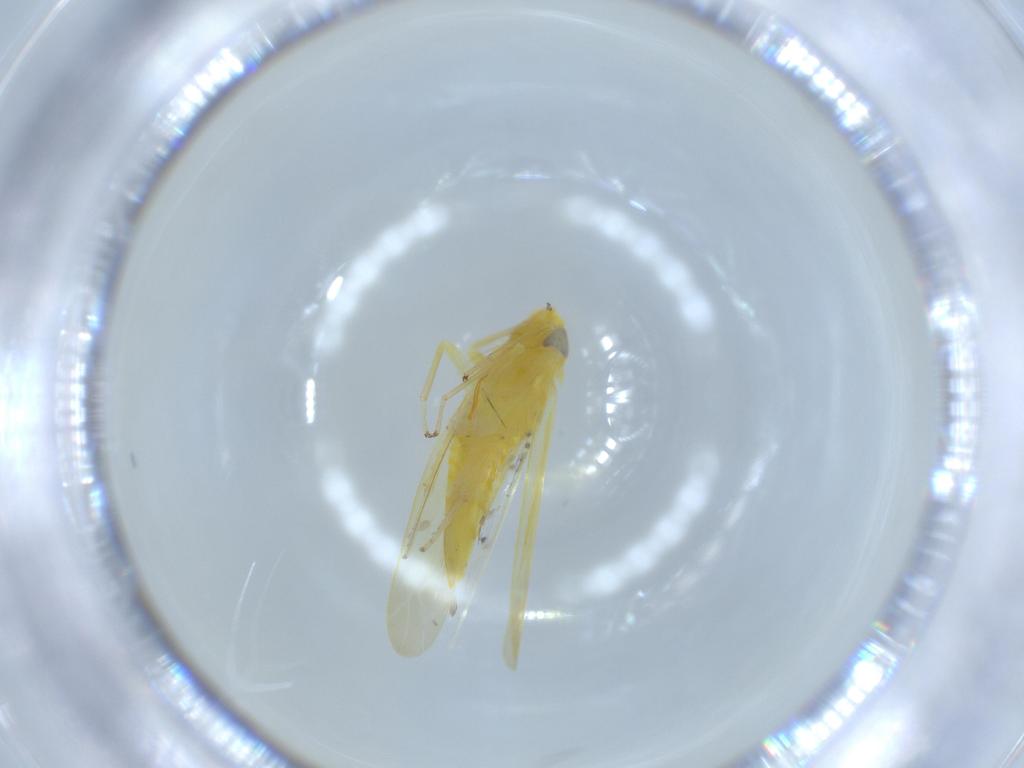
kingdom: Animalia
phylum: Arthropoda
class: Insecta
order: Hemiptera
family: Cicadellidae
